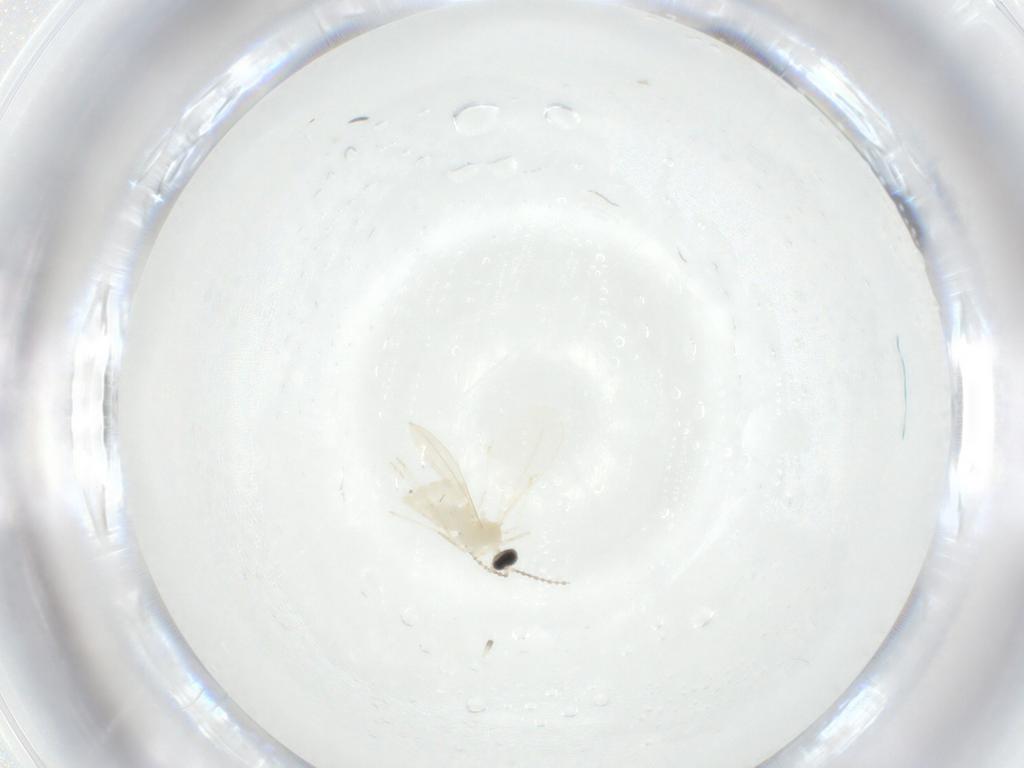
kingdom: Animalia
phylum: Arthropoda
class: Insecta
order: Diptera
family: Cecidomyiidae
